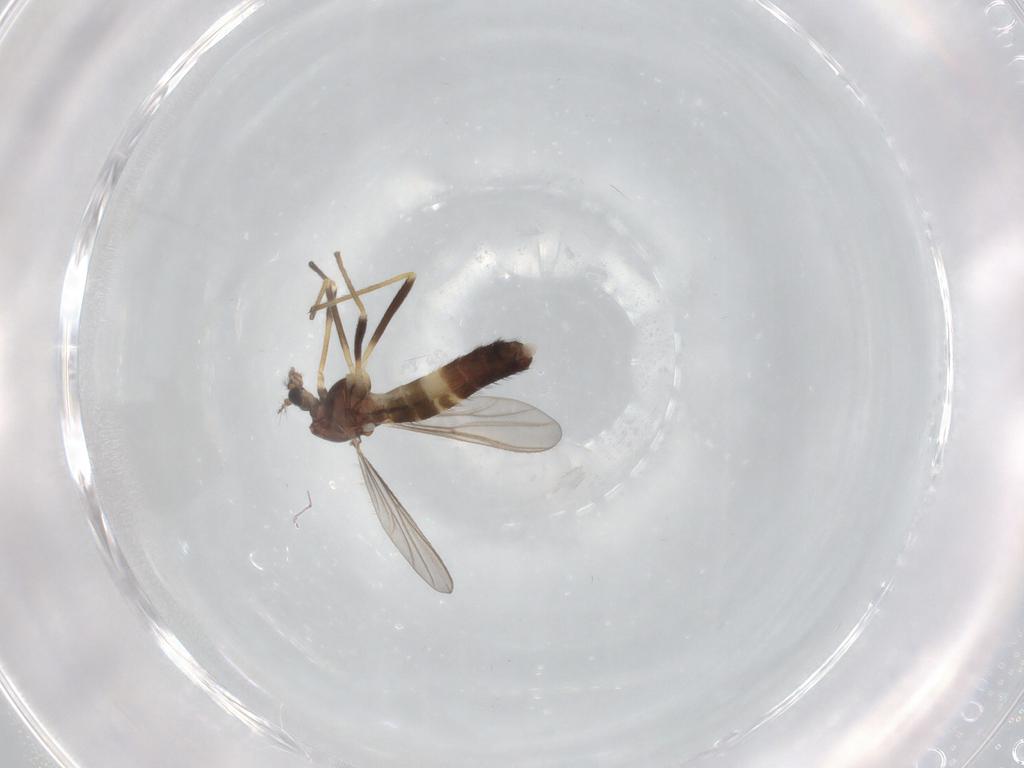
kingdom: Animalia
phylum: Arthropoda
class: Insecta
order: Diptera
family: Chironomidae
